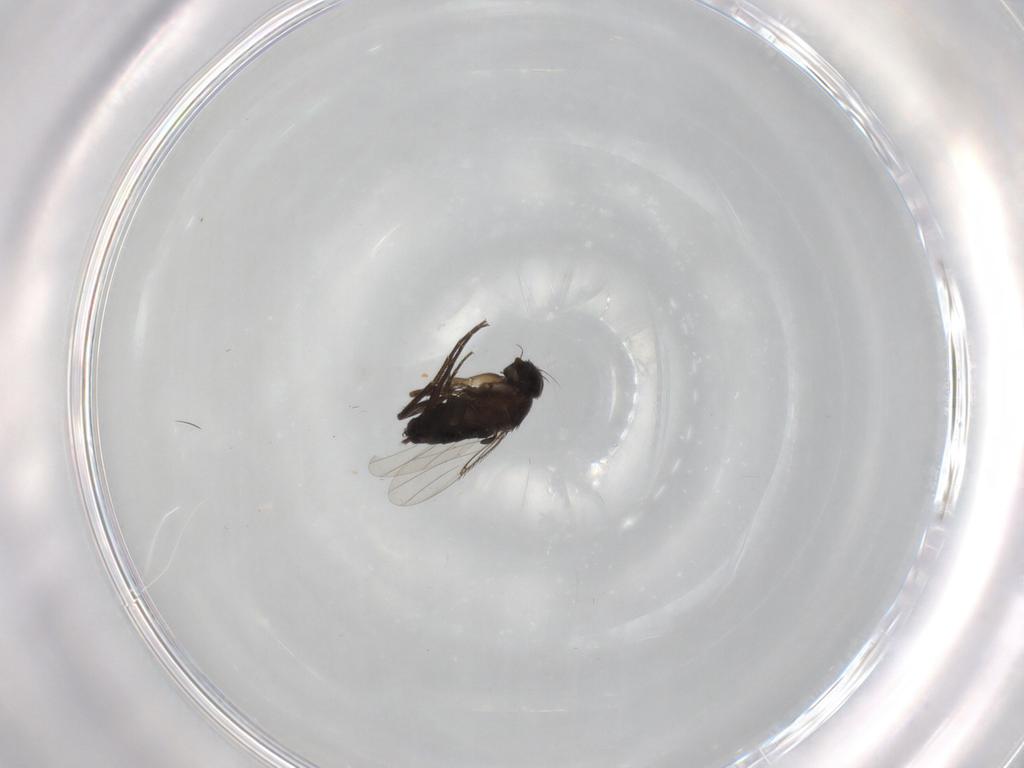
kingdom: Animalia
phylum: Arthropoda
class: Insecta
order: Diptera
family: Phoridae
